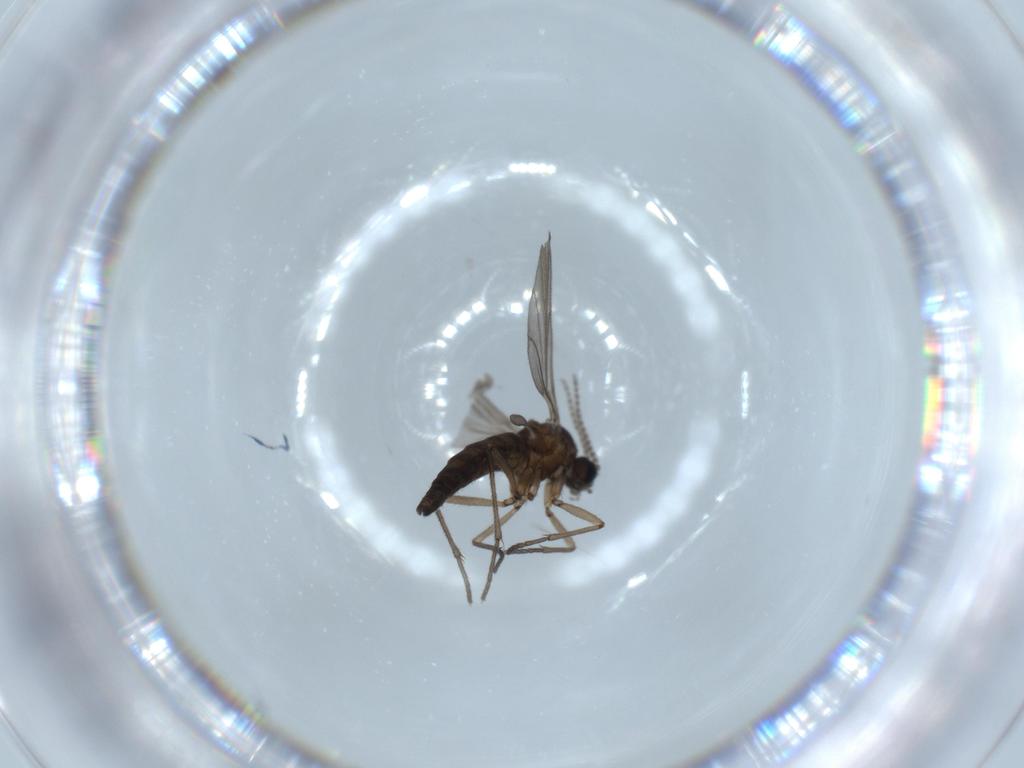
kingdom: Animalia
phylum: Arthropoda
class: Insecta
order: Diptera
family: Sciaridae
